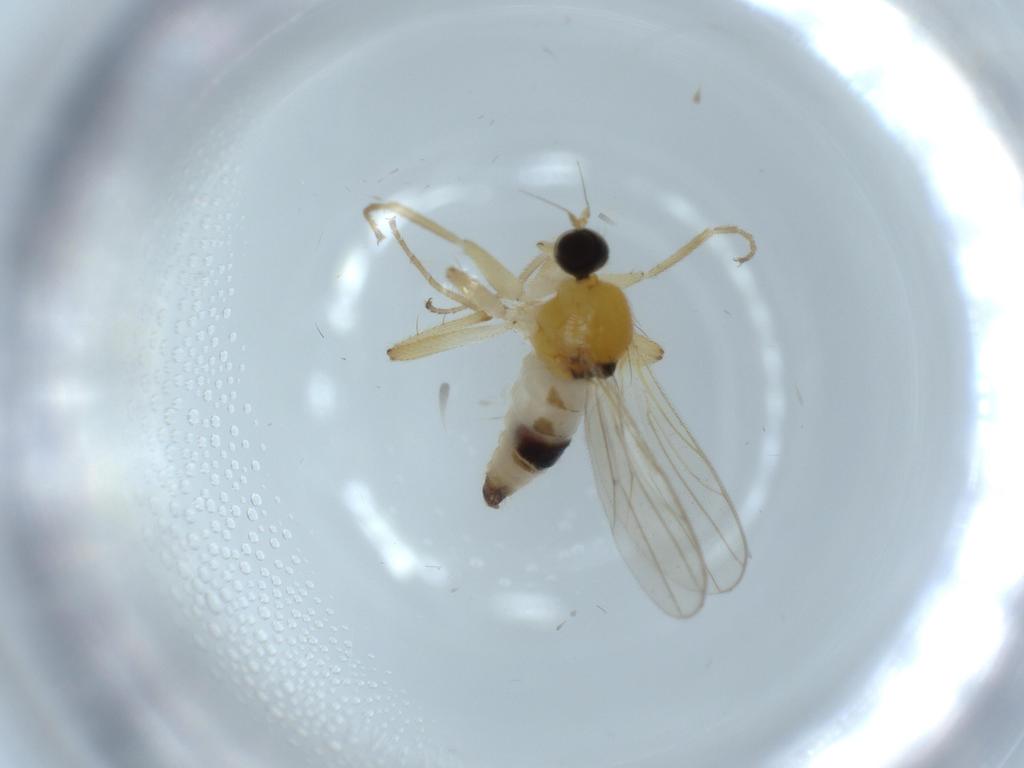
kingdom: Animalia
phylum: Arthropoda
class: Insecta
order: Diptera
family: Hybotidae
